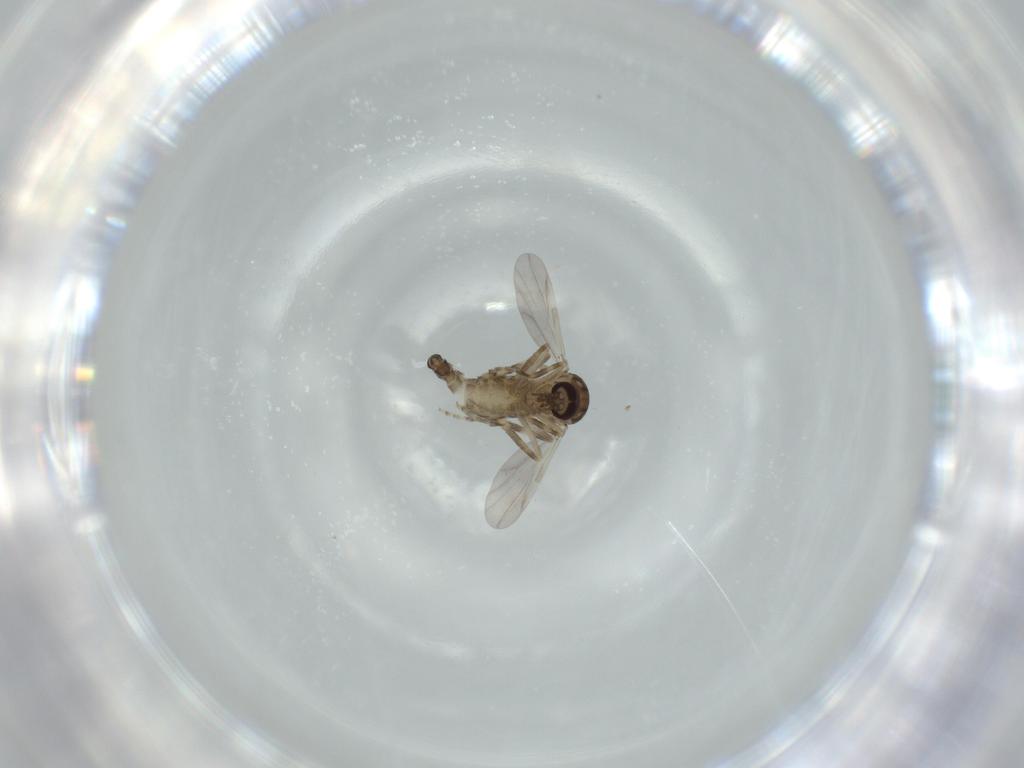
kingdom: Animalia
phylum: Arthropoda
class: Insecta
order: Diptera
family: Ceratopogonidae
